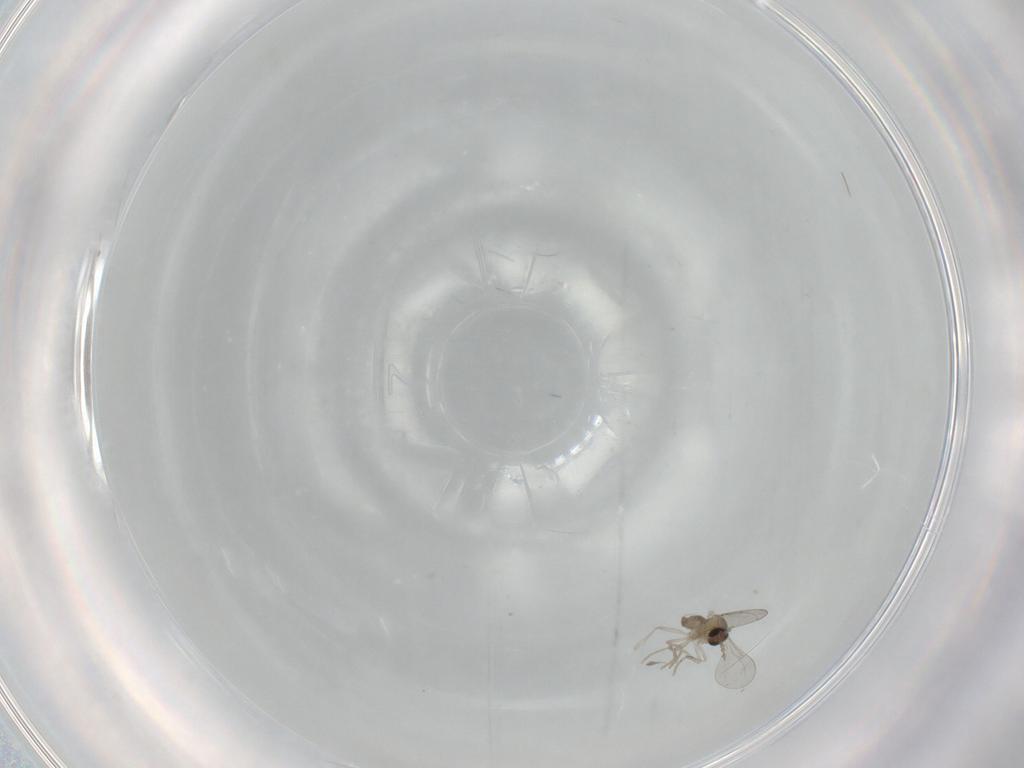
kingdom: Animalia
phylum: Arthropoda
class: Insecta
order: Diptera
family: Cecidomyiidae
